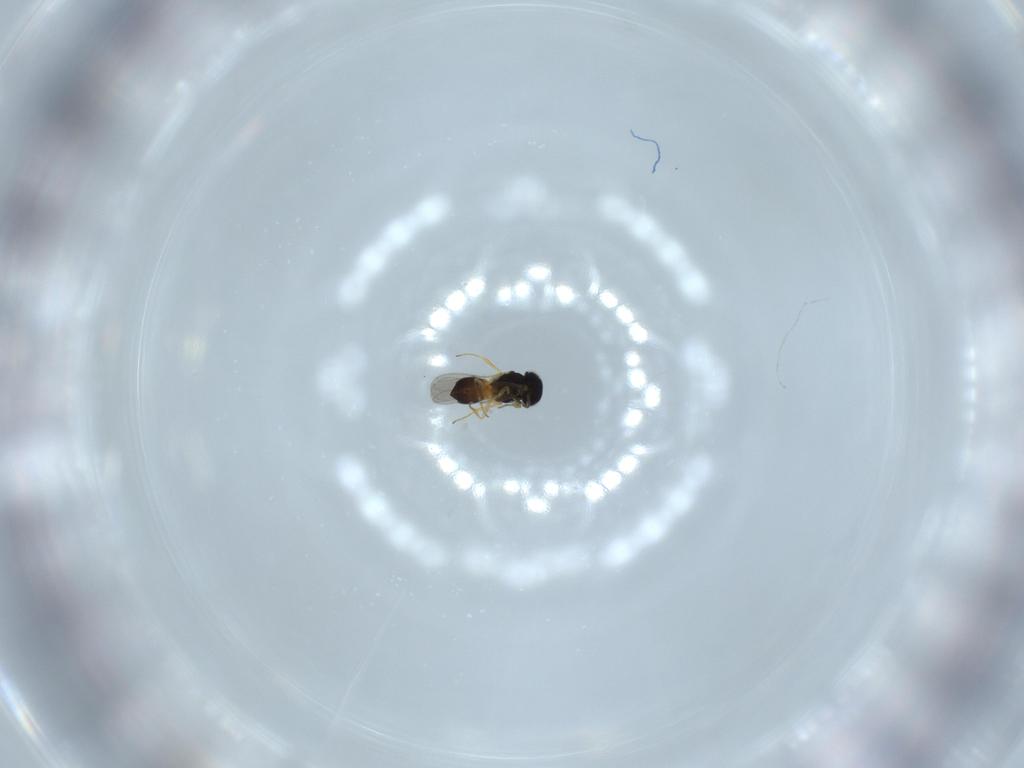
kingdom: Animalia
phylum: Arthropoda
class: Insecta
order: Hymenoptera
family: Scelionidae
